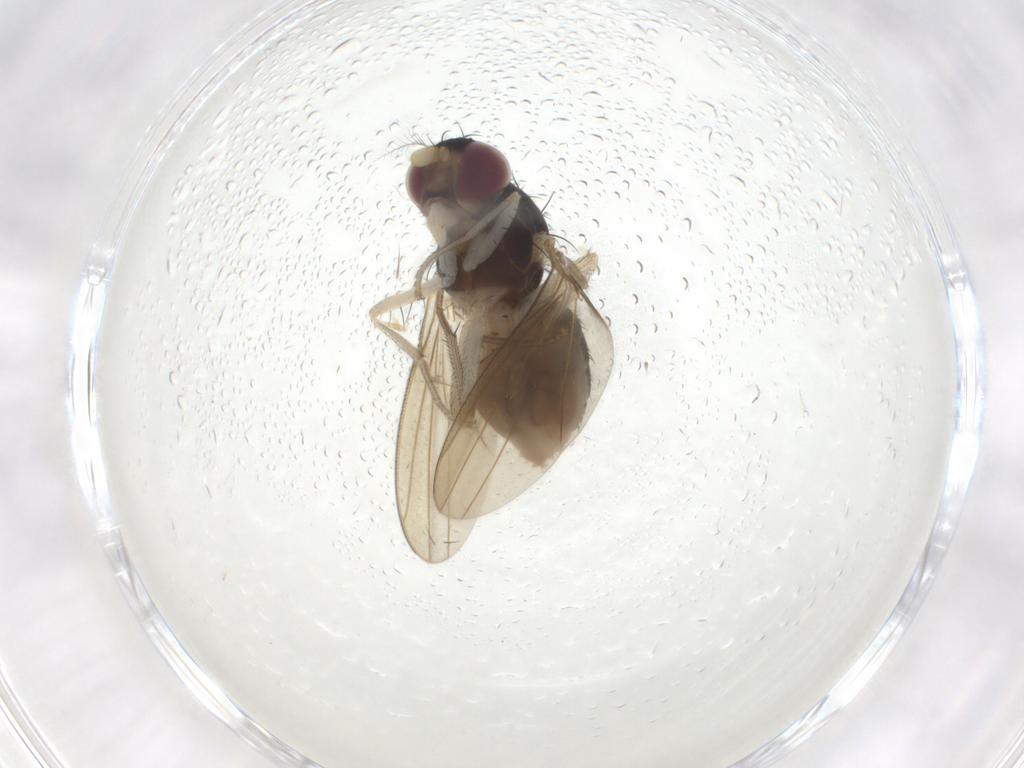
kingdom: Animalia
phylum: Arthropoda
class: Insecta
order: Diptera
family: Lauxaniidae
